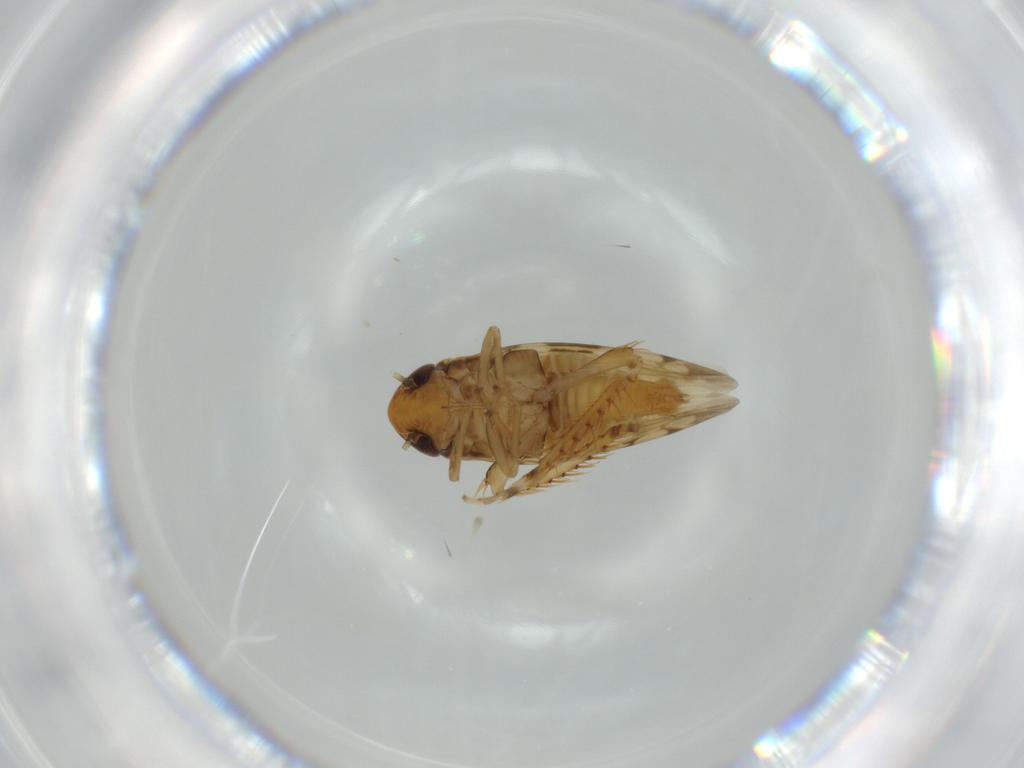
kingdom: Animalia
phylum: Arthropoda
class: Insecta
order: Hemiptera
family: Cicadellidae
